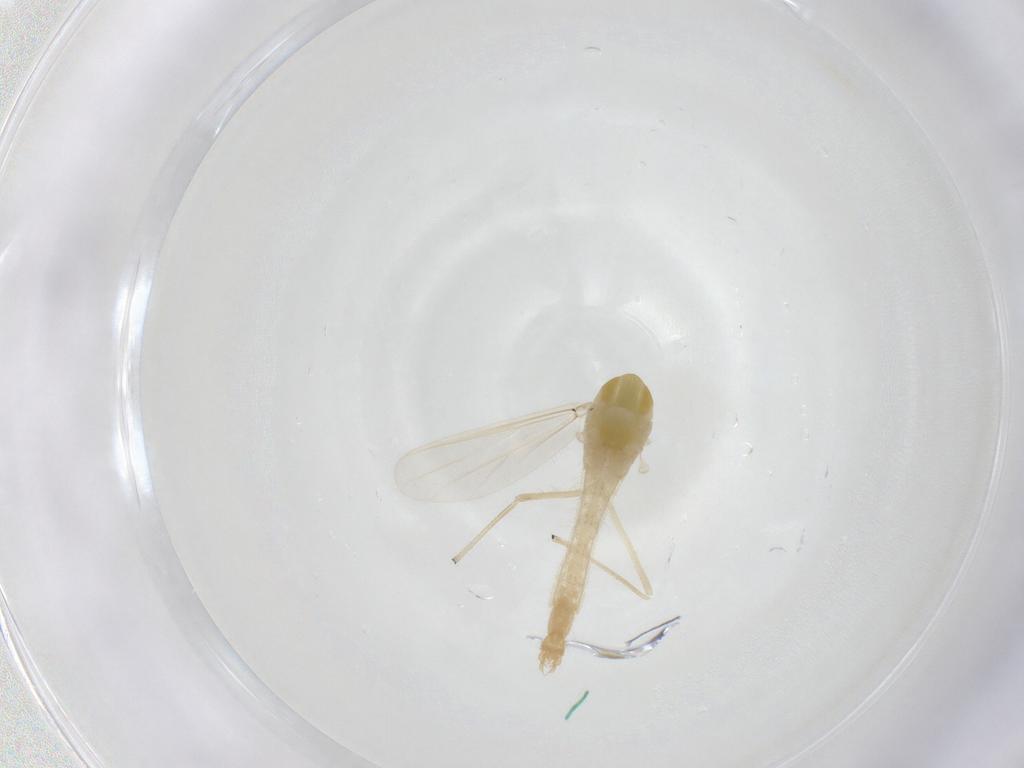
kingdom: Animalia
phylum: Arthropoda
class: Insecta
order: Diptera
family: Chironomidae
